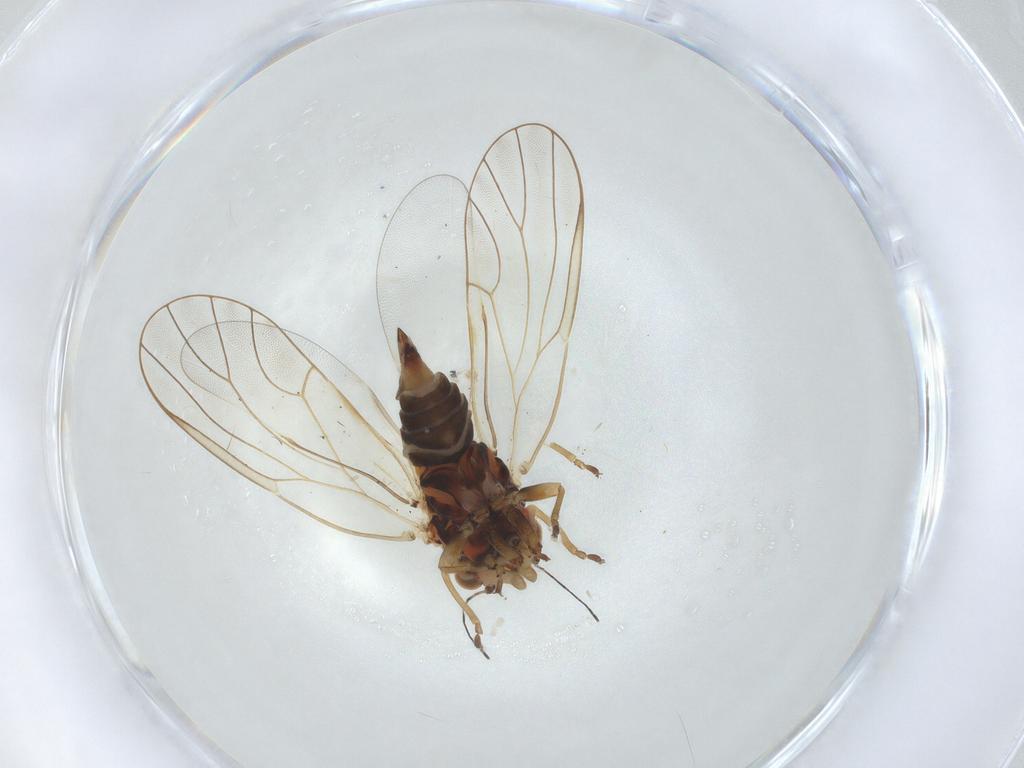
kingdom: Animalia
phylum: Arthropoda
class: Insecta
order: Hemiptera
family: Psyllidae
